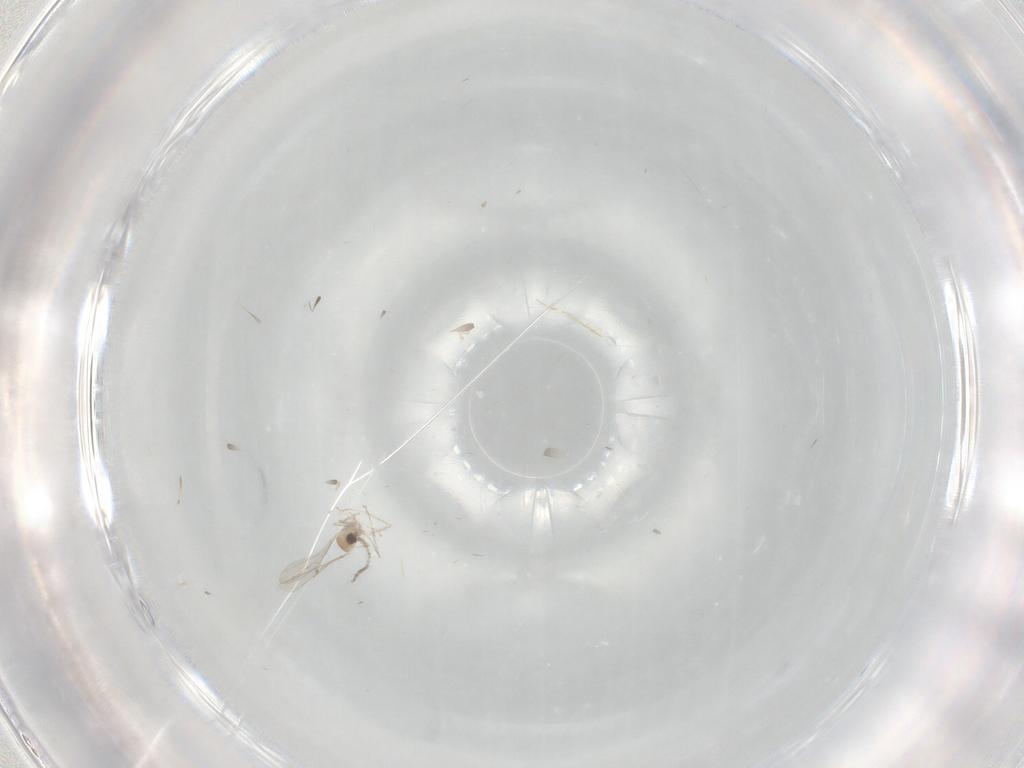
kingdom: Animalia
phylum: Arthropoda
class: Insecta
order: Diptera
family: Cecidomyiidae
